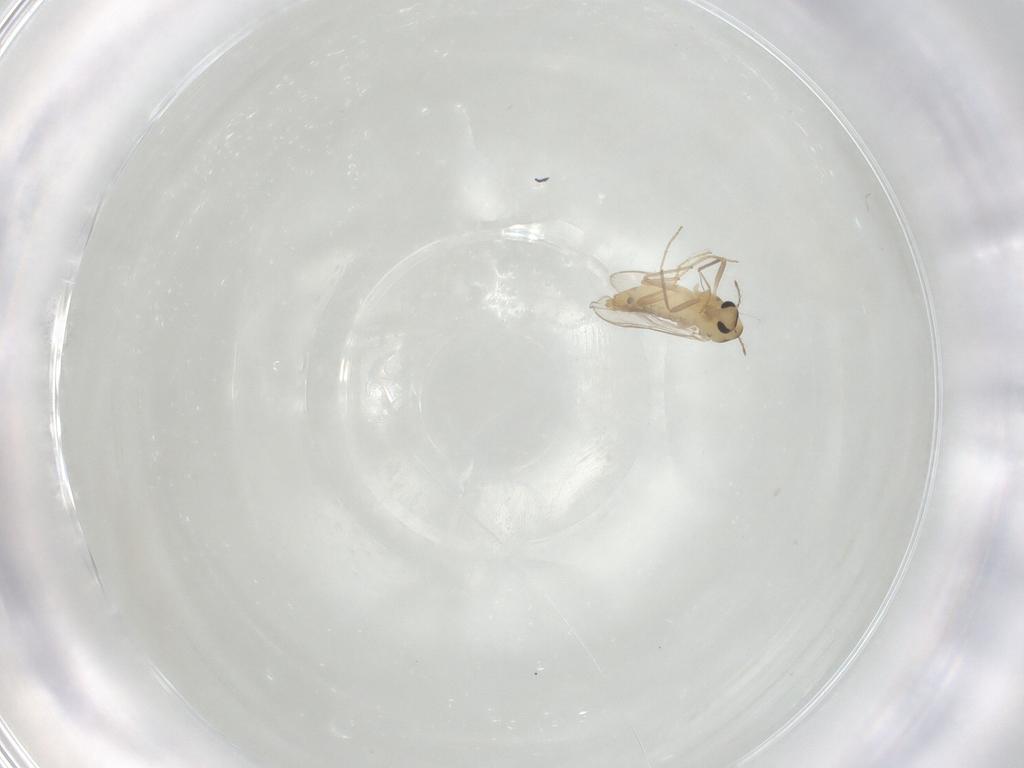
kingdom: Animalia
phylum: Arthropoda
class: Insecta
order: Diptera
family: Chironomidae
